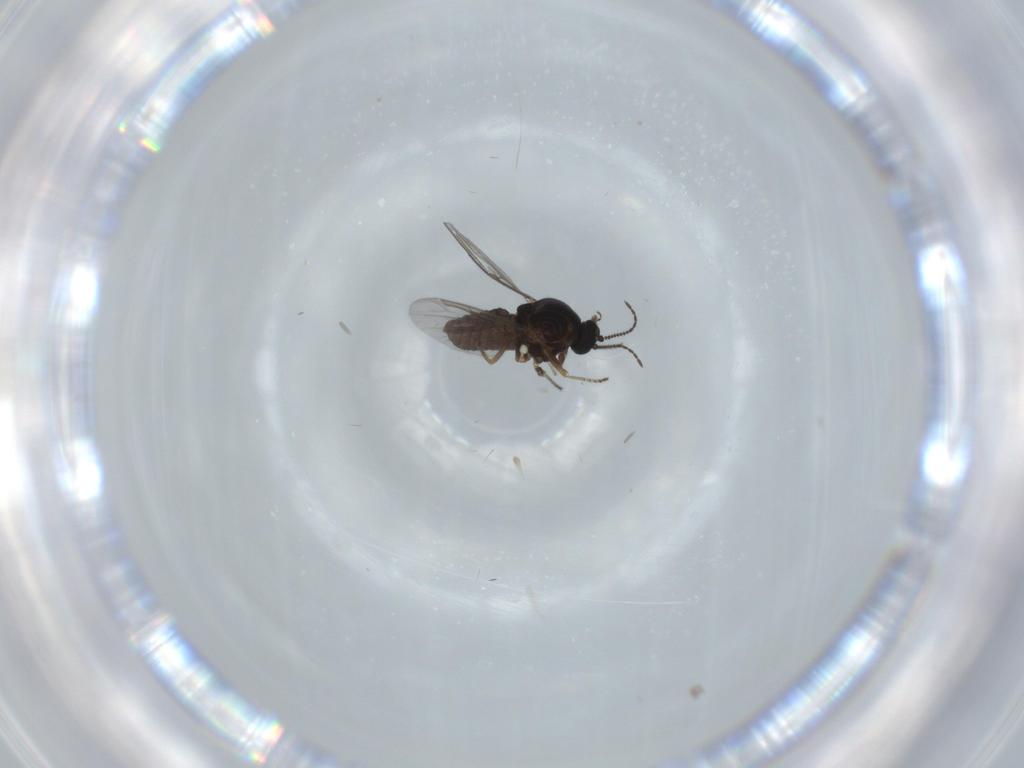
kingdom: Animalia
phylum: Arthropoda
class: Insecta
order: Diptera
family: Ceratopogonidae
